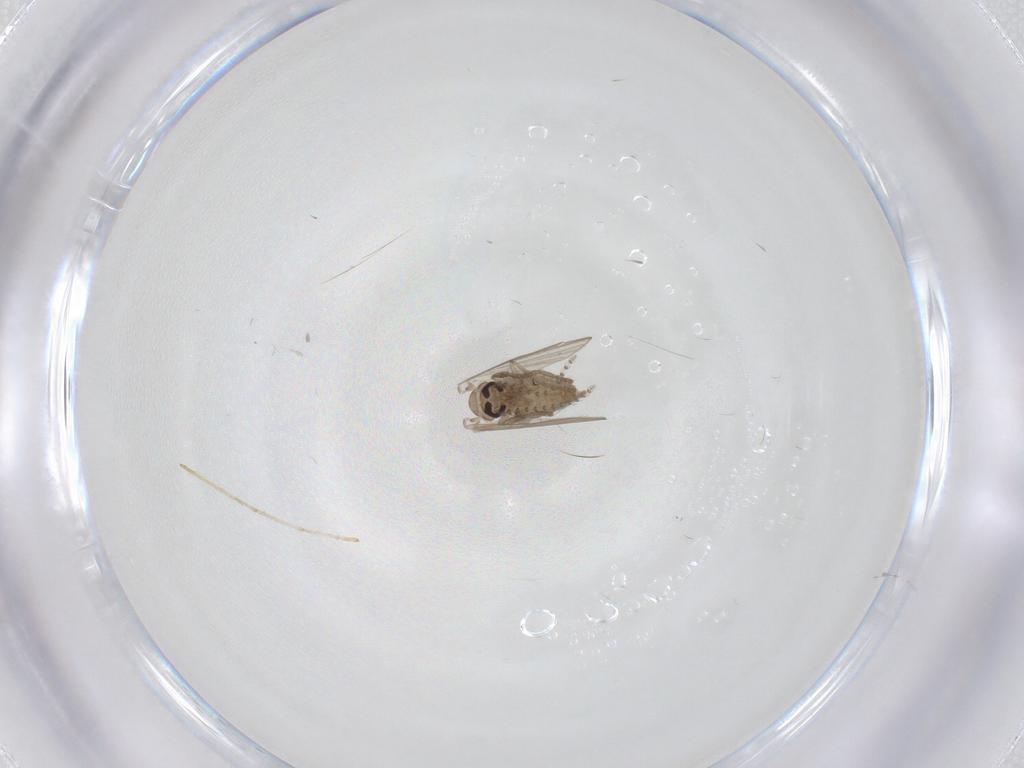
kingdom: Animalia
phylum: Arthropoda
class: Insecta
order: Diptera
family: Psychodidae
